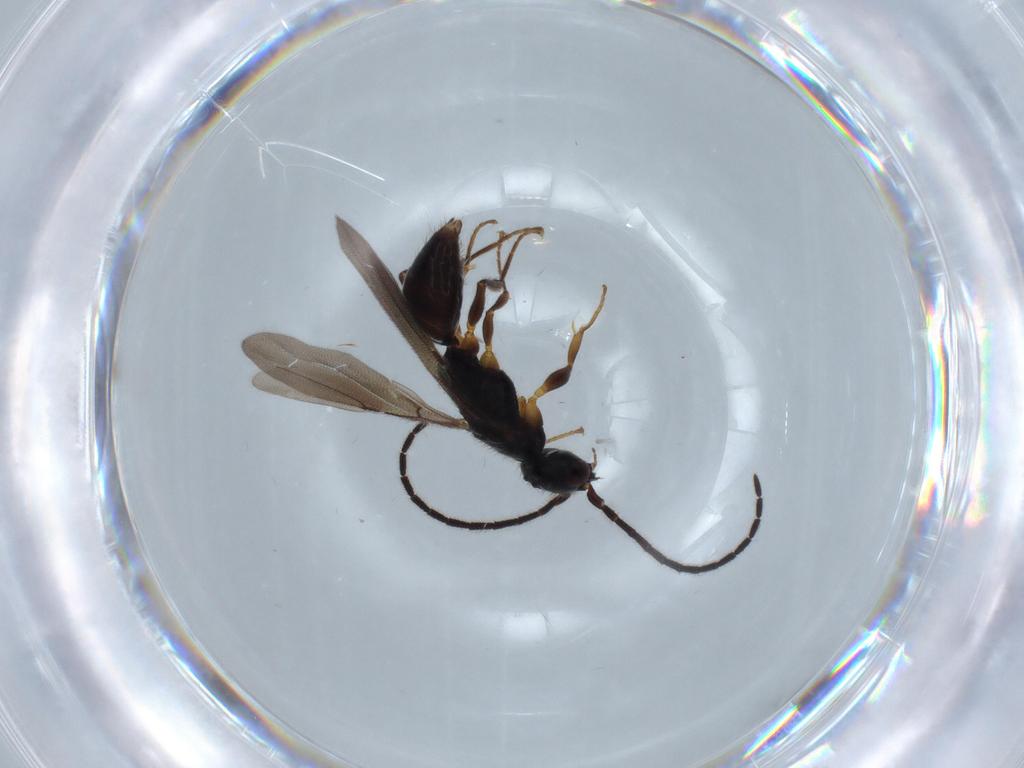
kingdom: Animalia
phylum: Arthropoda
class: Insecta
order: Hymenoptera
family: Bethylidae
